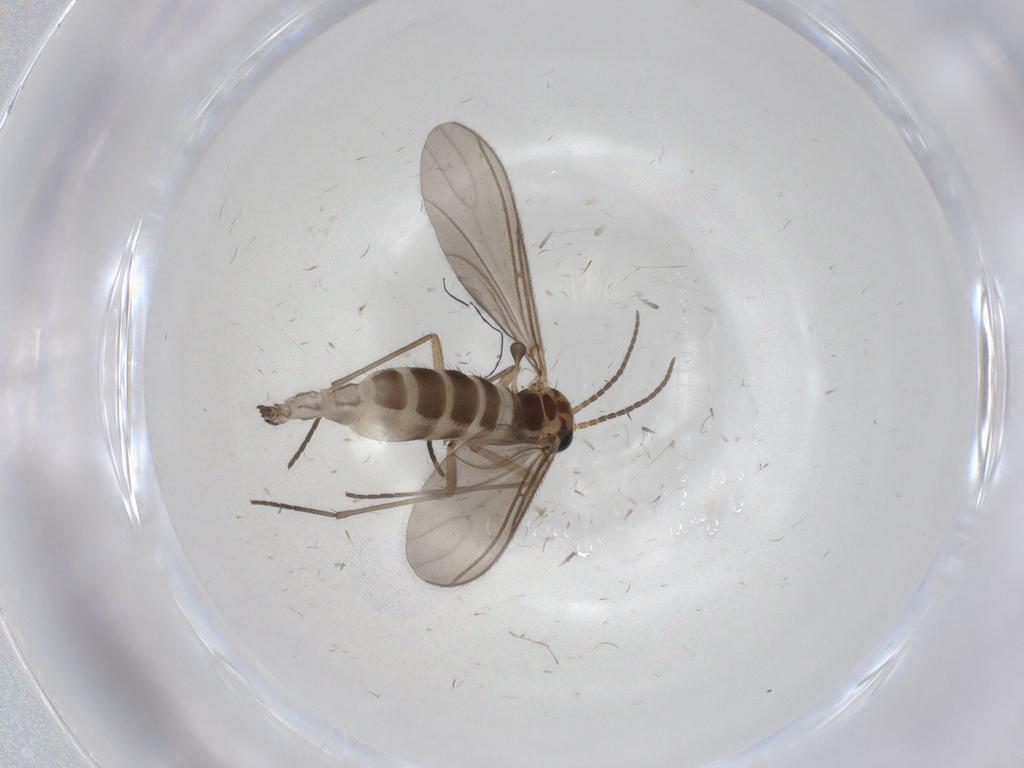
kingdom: Animalia
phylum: Arthropoda
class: Insecta
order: Diptera
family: Sciaridae
